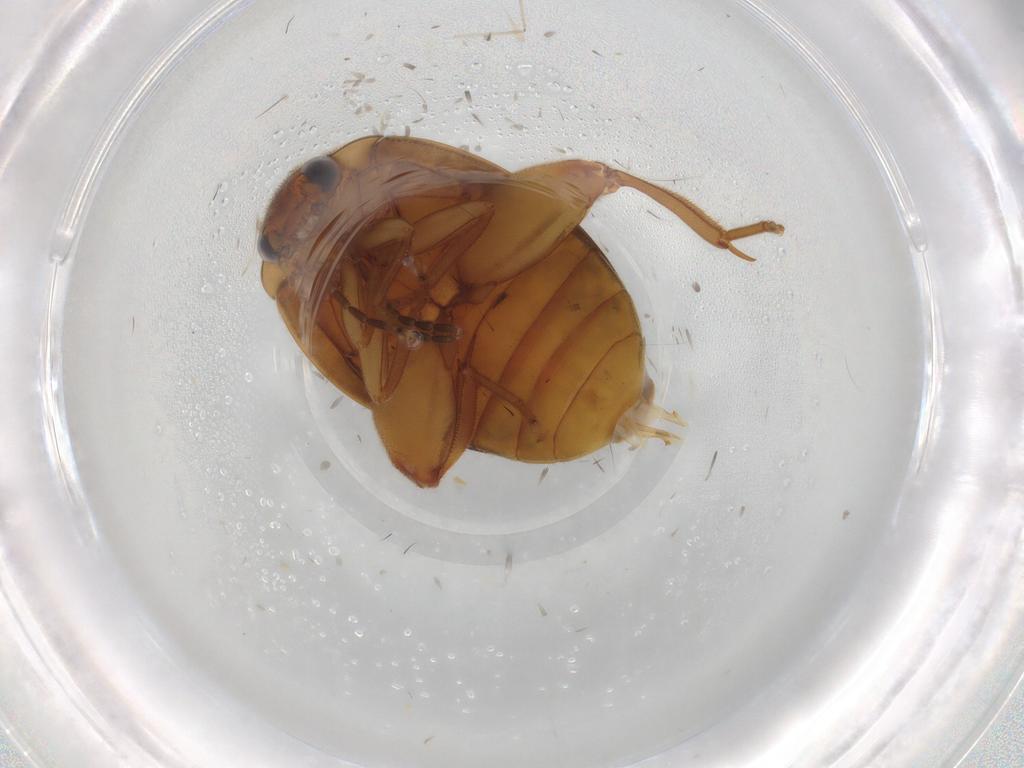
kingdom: Animalia
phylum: Arthropoda
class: Insecta
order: Coleoptera
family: Scirtidae
